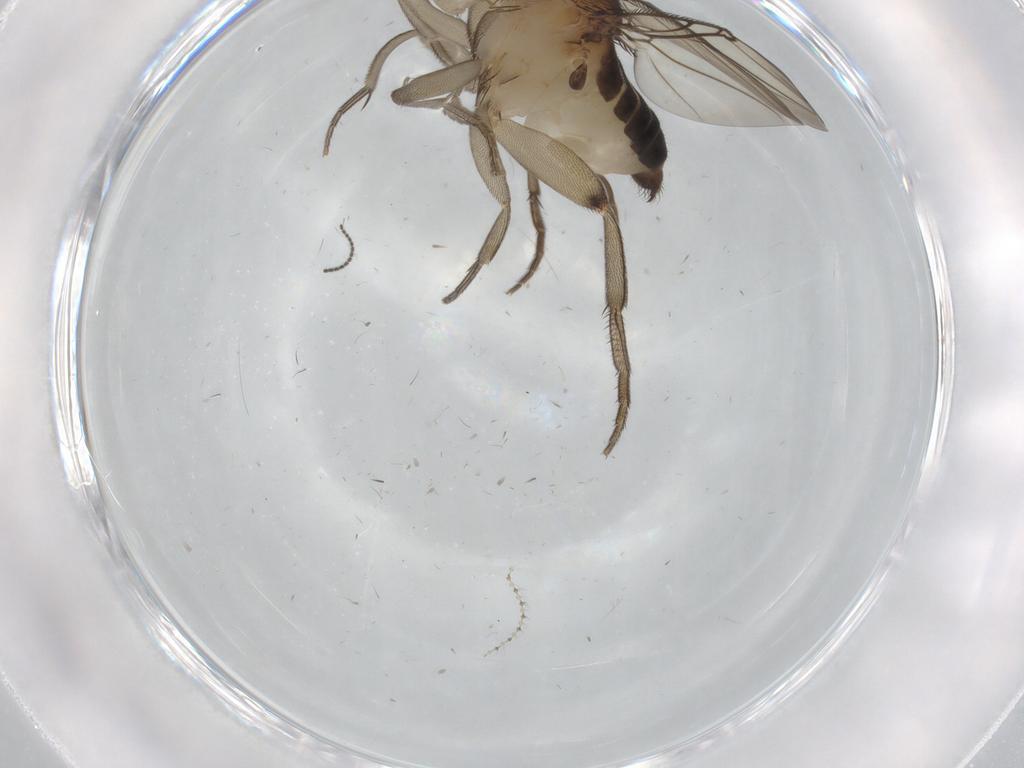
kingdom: Animalia
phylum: Arthropoda
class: Insecta
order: Diptera
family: Phoridae
